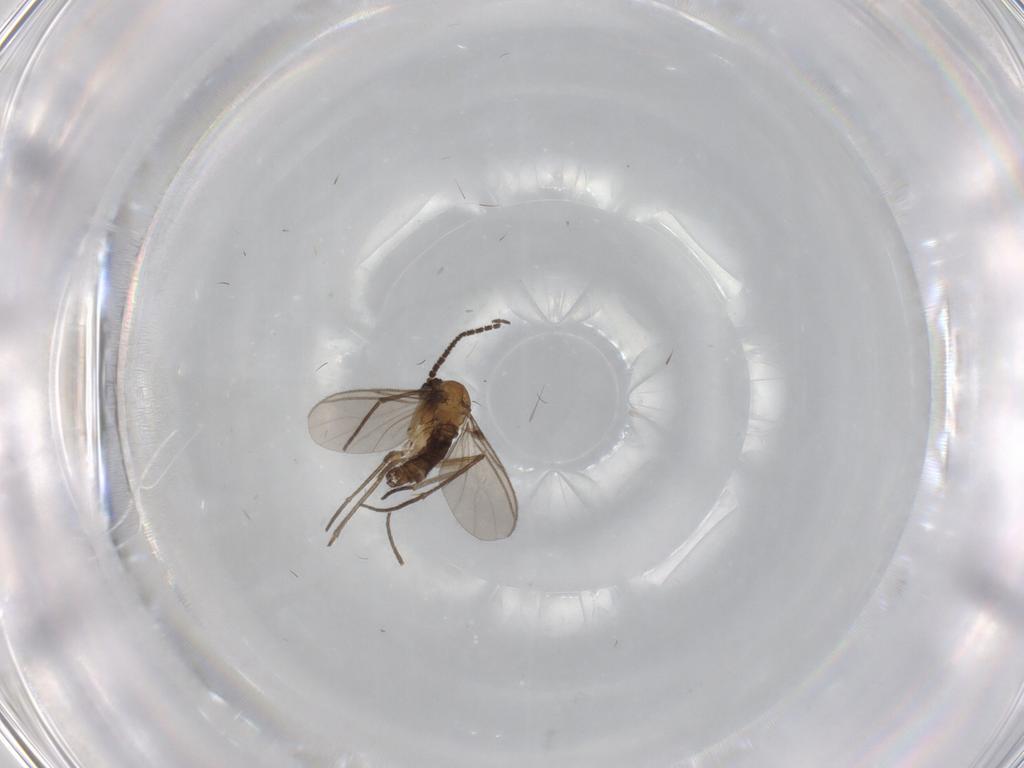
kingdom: Animalia
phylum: Arthropoda
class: Insecta
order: Diptera
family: Sciaridae
